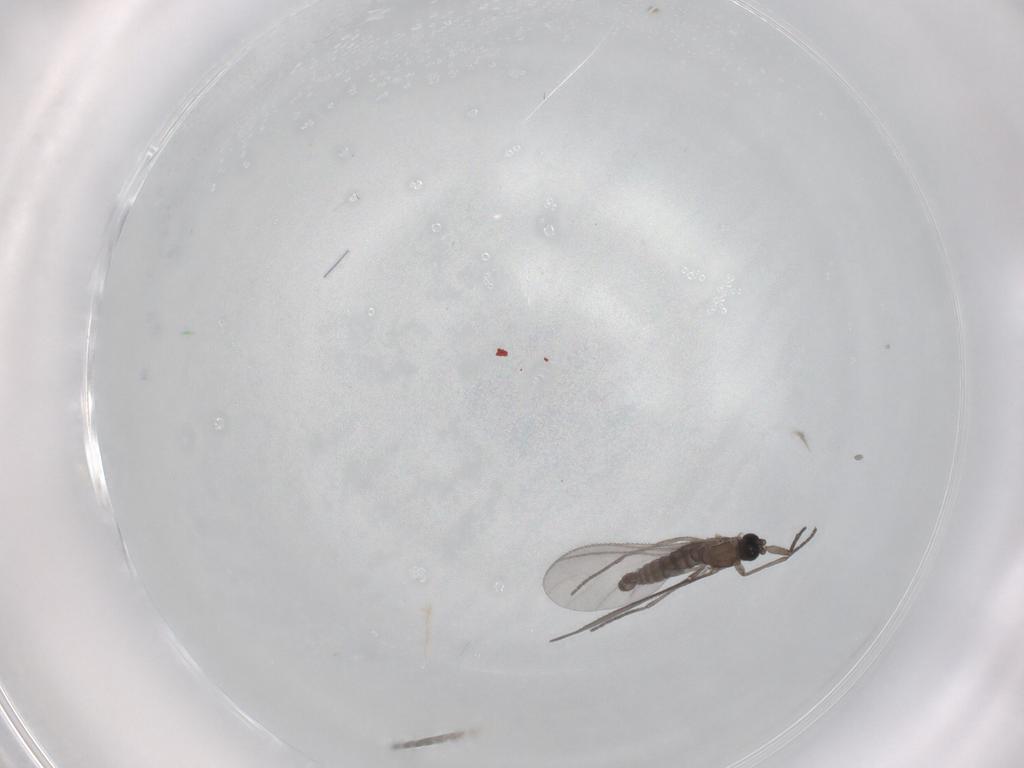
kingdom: Animalia
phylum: Arthropoda
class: Insecta
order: Diptera
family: Sciaridae
